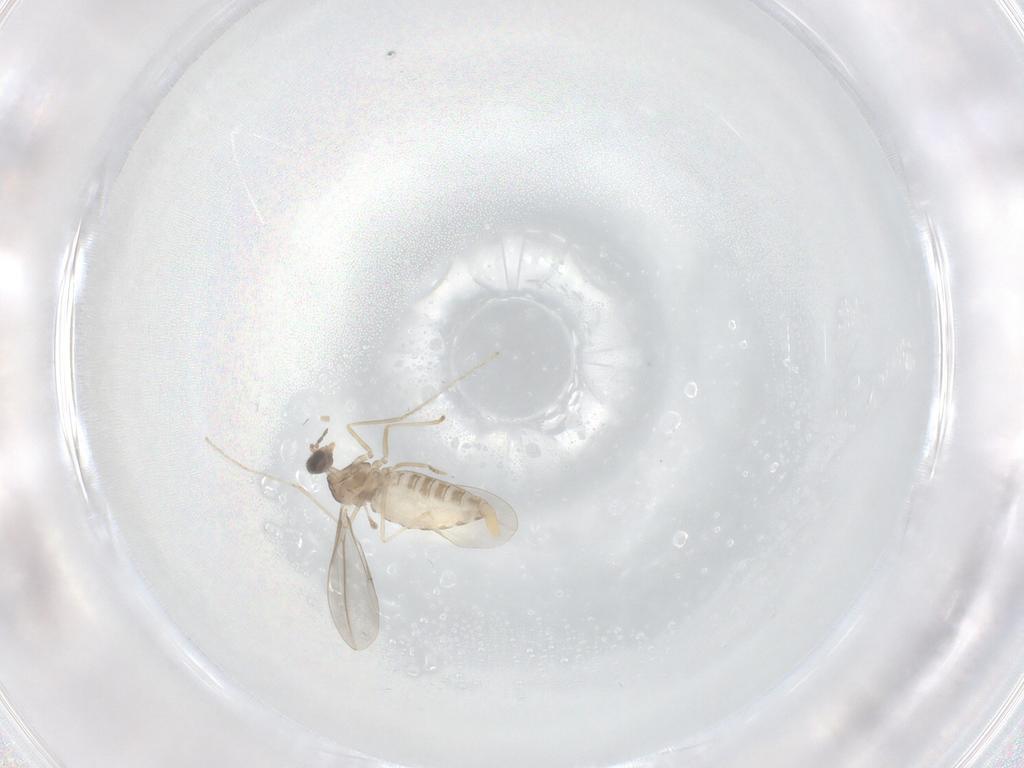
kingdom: Animalia
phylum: Arthropoda
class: Insecta
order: Diptera
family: Cecidomyiidae
